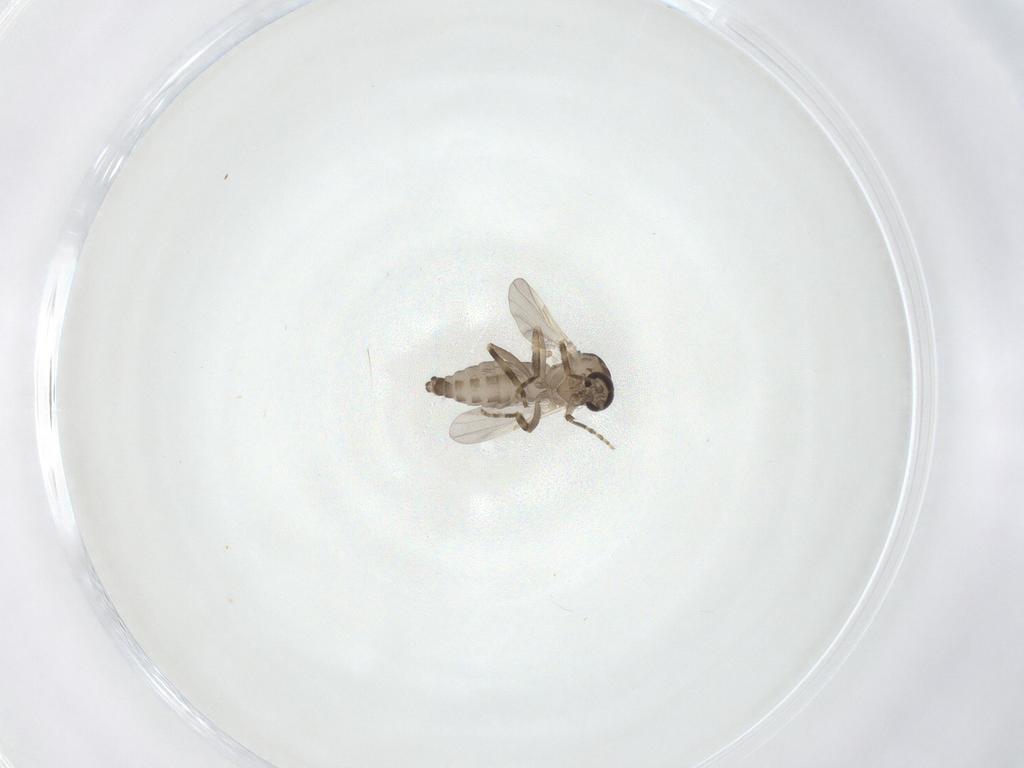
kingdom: Animalia
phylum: Arthropoda
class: Insecta
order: Diptera
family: Ceratopogonidae
